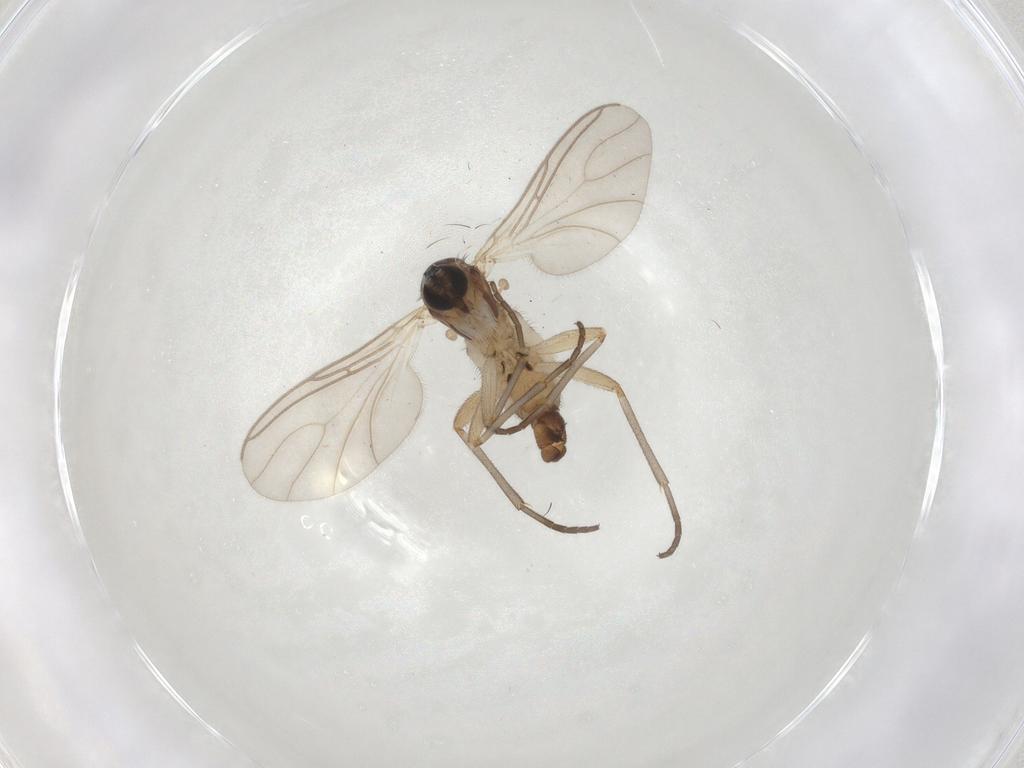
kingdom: Animalia
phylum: Arthropoda
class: Insecta
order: Diptera
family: Sciaridae
